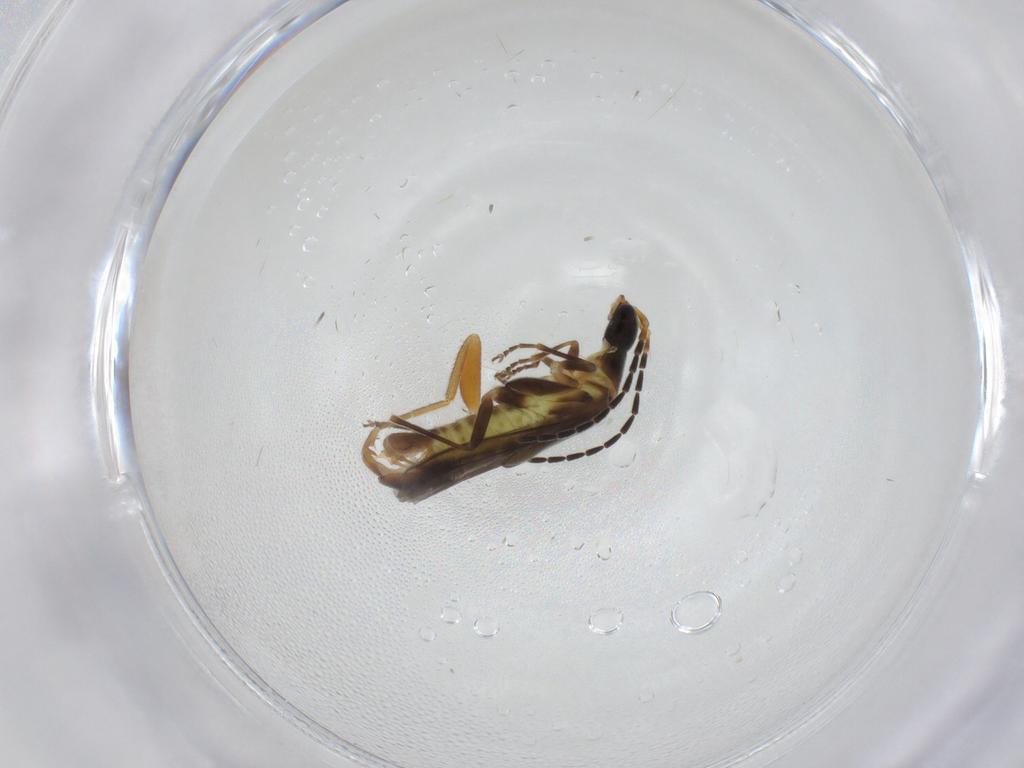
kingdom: Animalia
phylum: Arthropoda
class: Insecta
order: Coleoptera
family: Cantharidae
